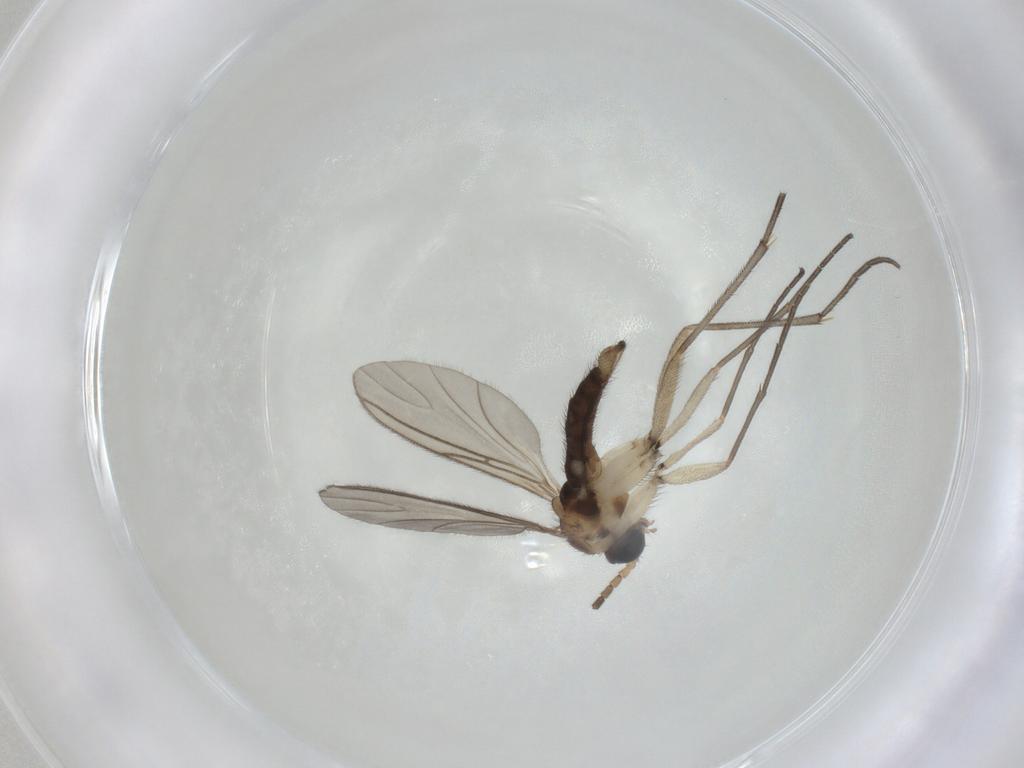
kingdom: Animalia
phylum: Arthropoda
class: Insecta
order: Diptera
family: Sciaridae
